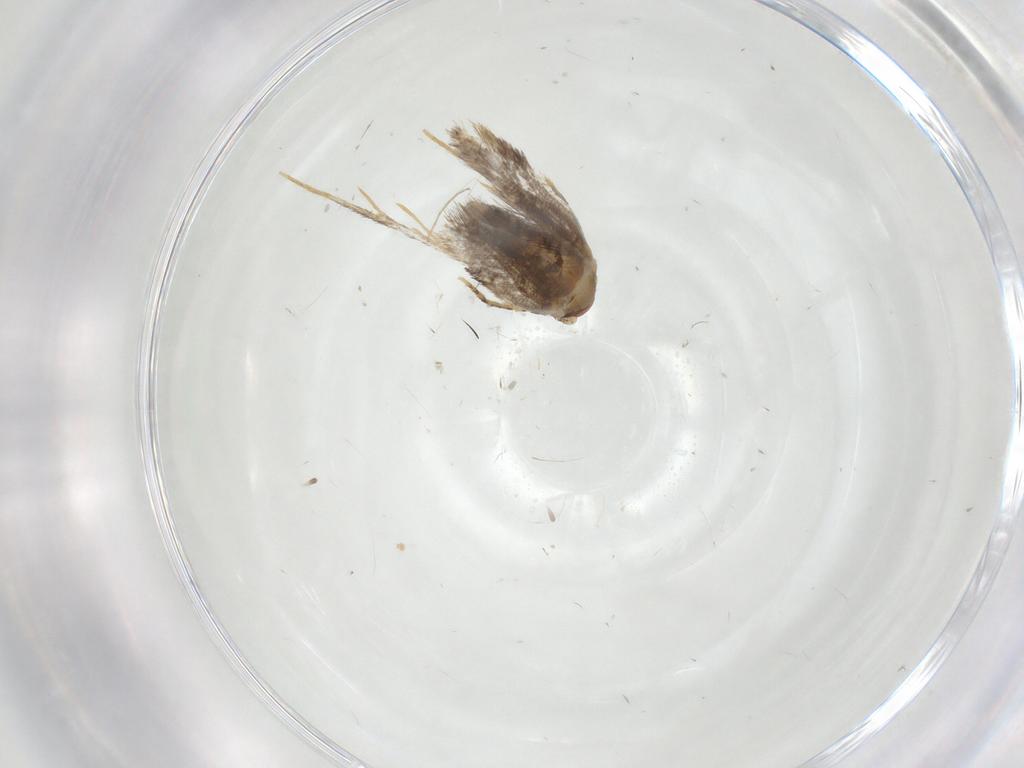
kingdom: Animalia
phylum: Arthropoda
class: Insecta
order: Lepidoptera
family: Tineidae
